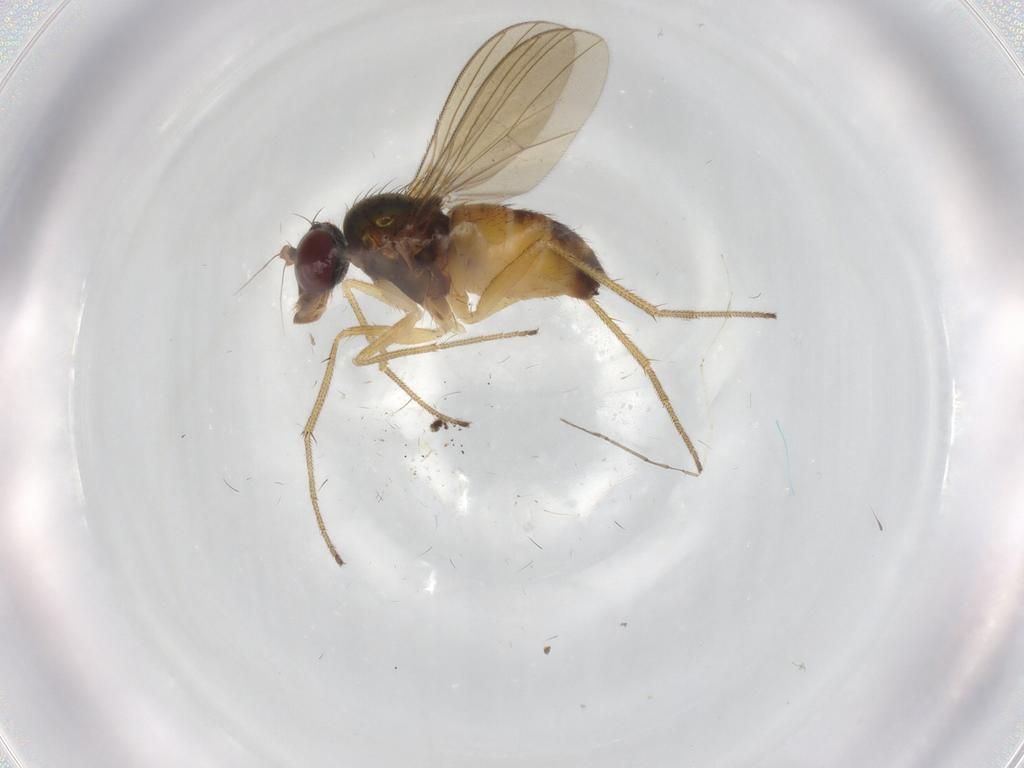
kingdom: Animalia
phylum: Arthropoda
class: Insecta
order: Diptera
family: Dolichopodidae
